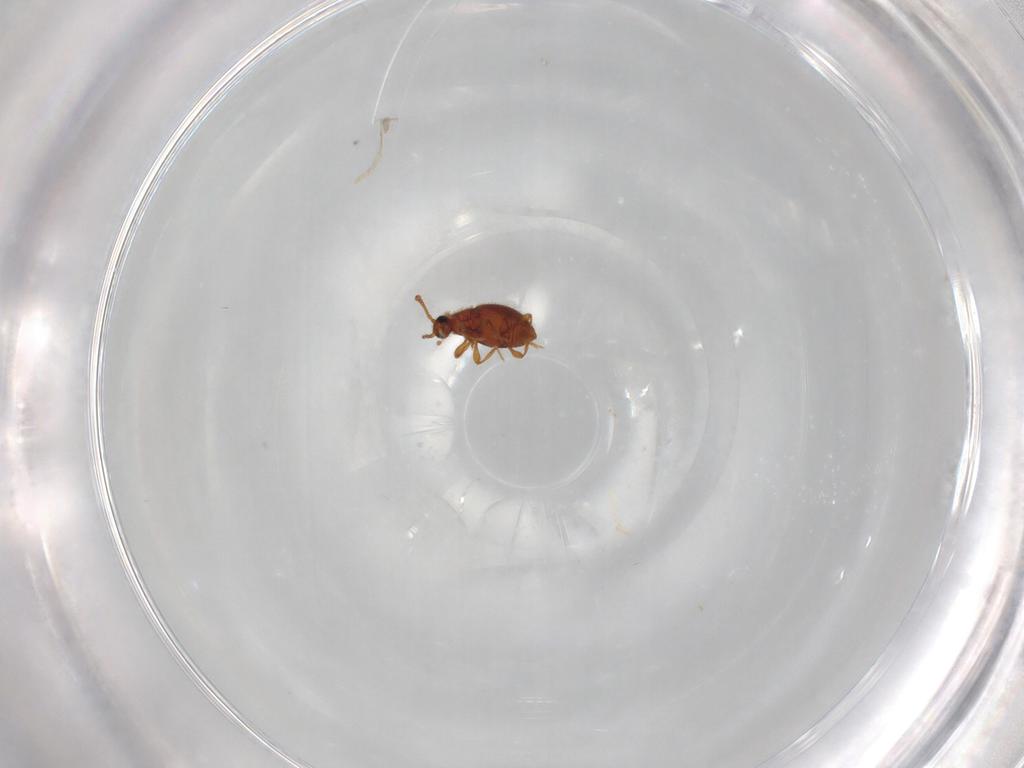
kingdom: Animalia
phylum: Arthropoda
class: Insecta
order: Coleoptera
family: Staphylinidae
